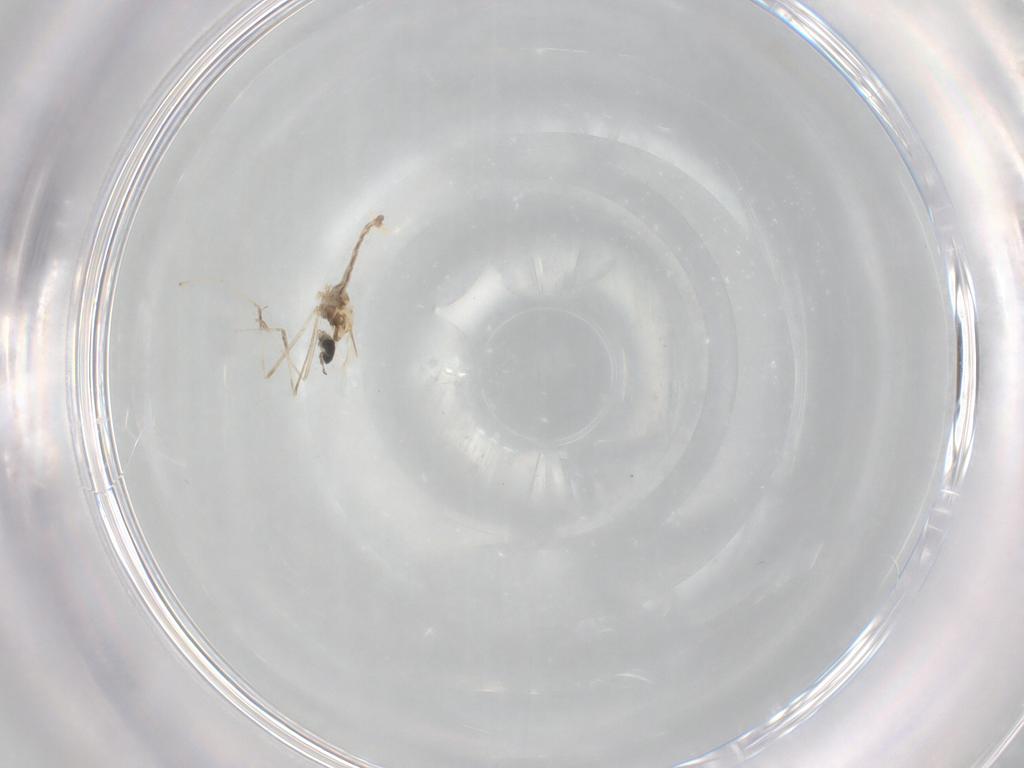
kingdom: Animalia
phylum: Arthropoda
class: Insecta
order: Diptera
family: Cecidomyiidae
